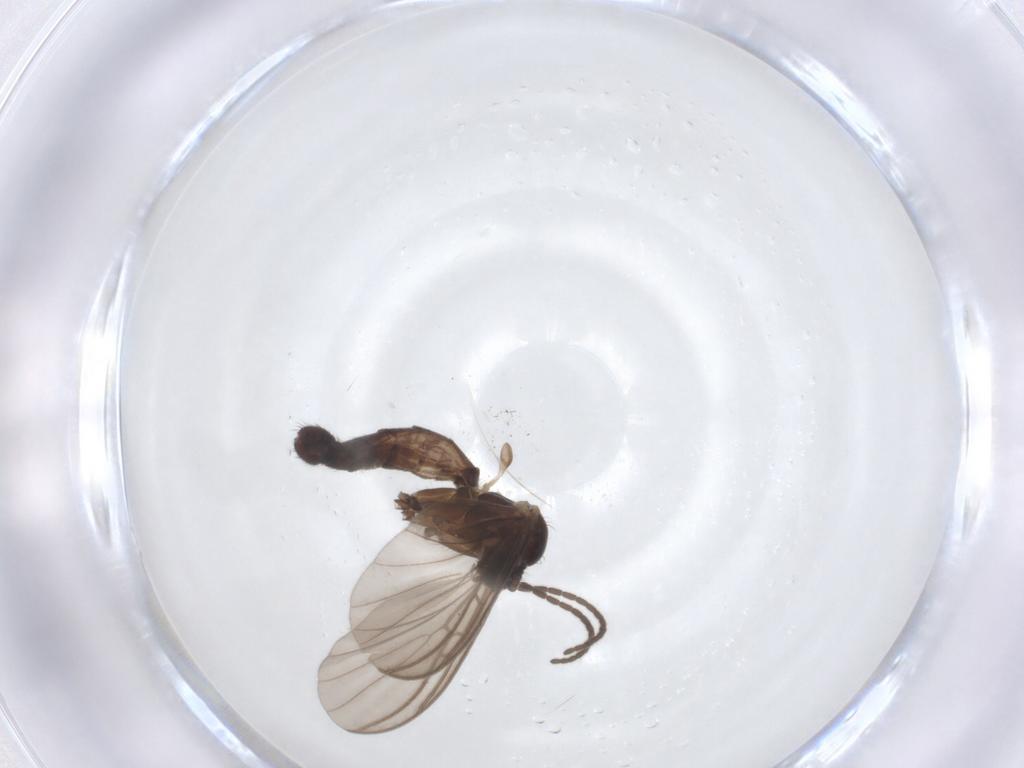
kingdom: Animalia
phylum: Arthropoda
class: Insecta
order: Diptera
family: Mycetophilidae
